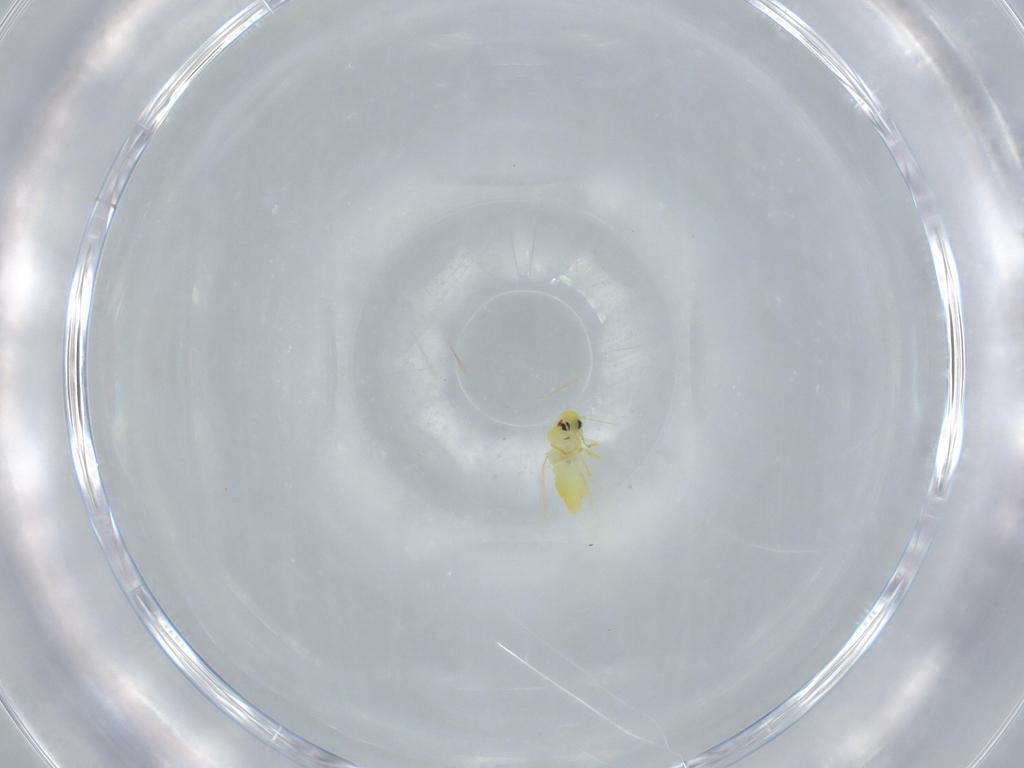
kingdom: Animalia
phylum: Arthropoda
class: Insecta
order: Hemiptera
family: Aleyrodidae
